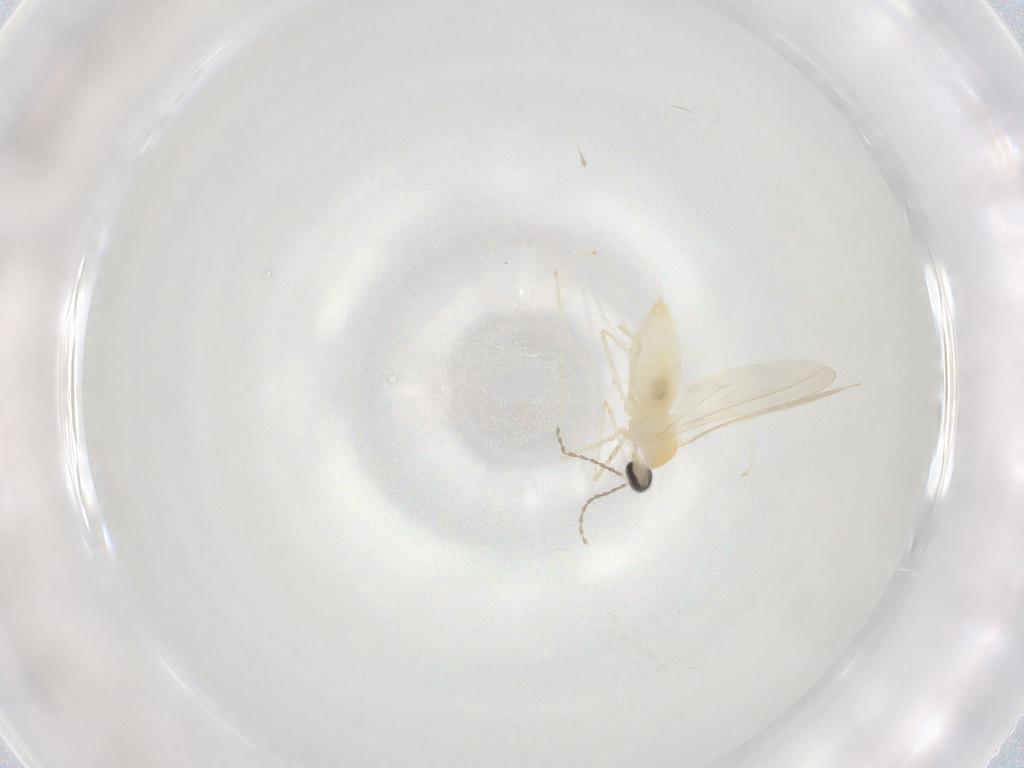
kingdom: Animalia
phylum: Arthropoda
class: Insecta
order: Diptera
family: Cecidomyiidae
